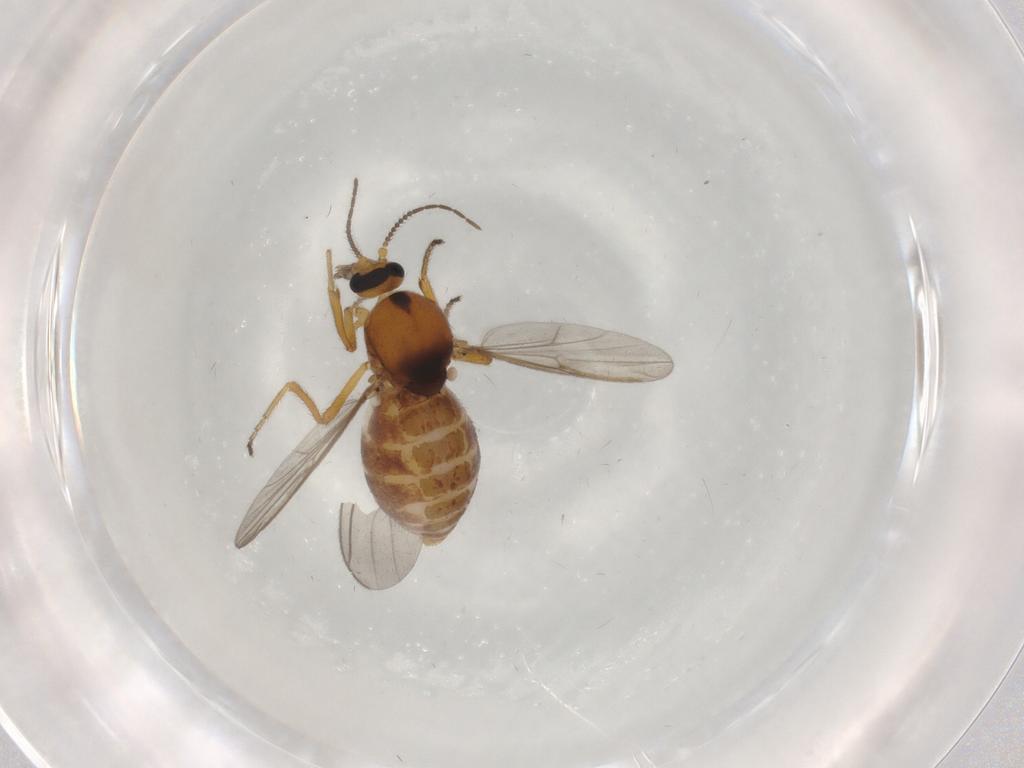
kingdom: Animalia
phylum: Arthropoda
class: Insecta
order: Diptera
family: Ceratopogonidae
